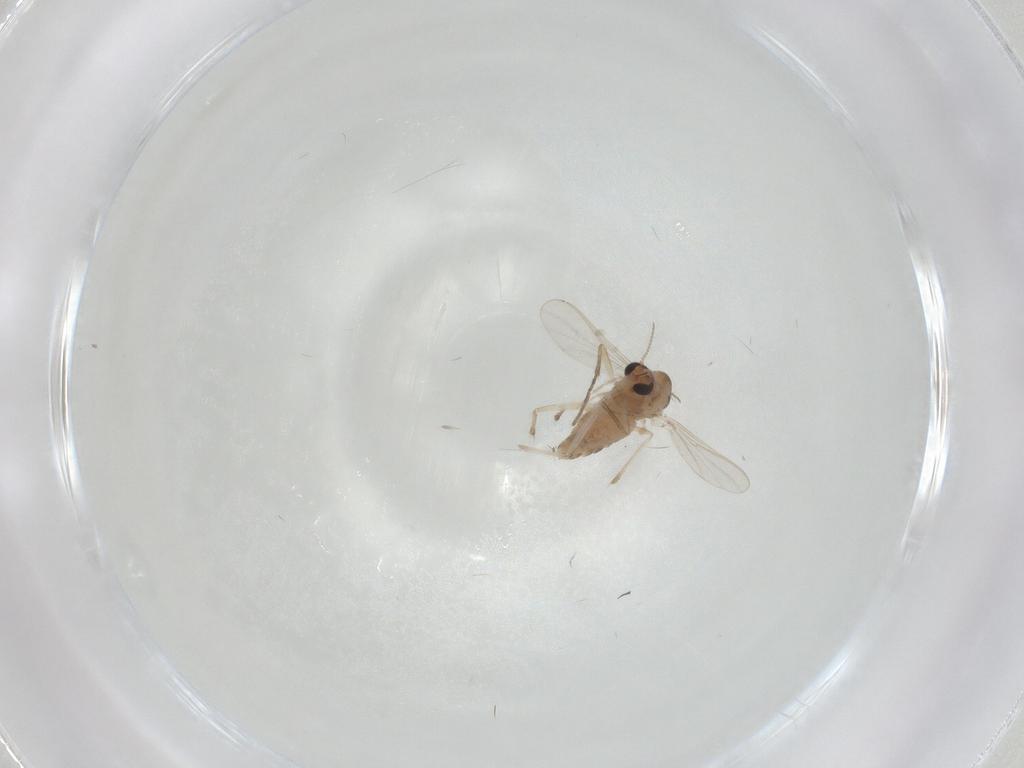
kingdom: Animalia
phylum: Arthropoda
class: Insecta
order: Diptera
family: Chironomidae
